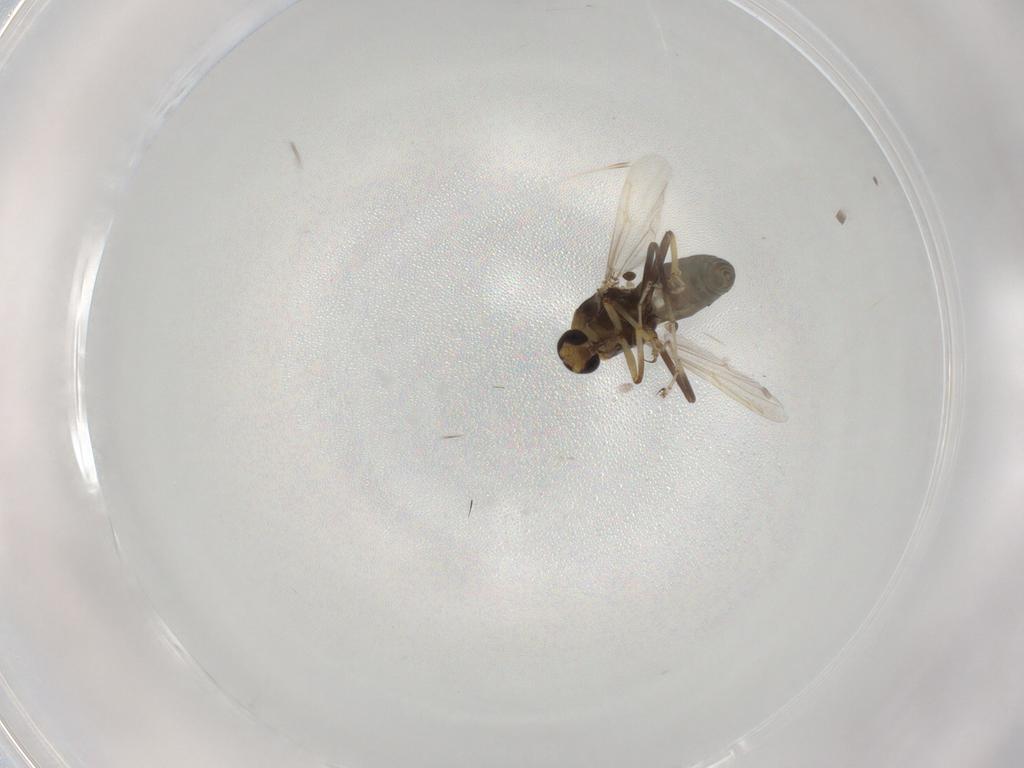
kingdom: Animalia
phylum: Arthropoda
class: Insecta
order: Diptera
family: Ceratopogonidae
